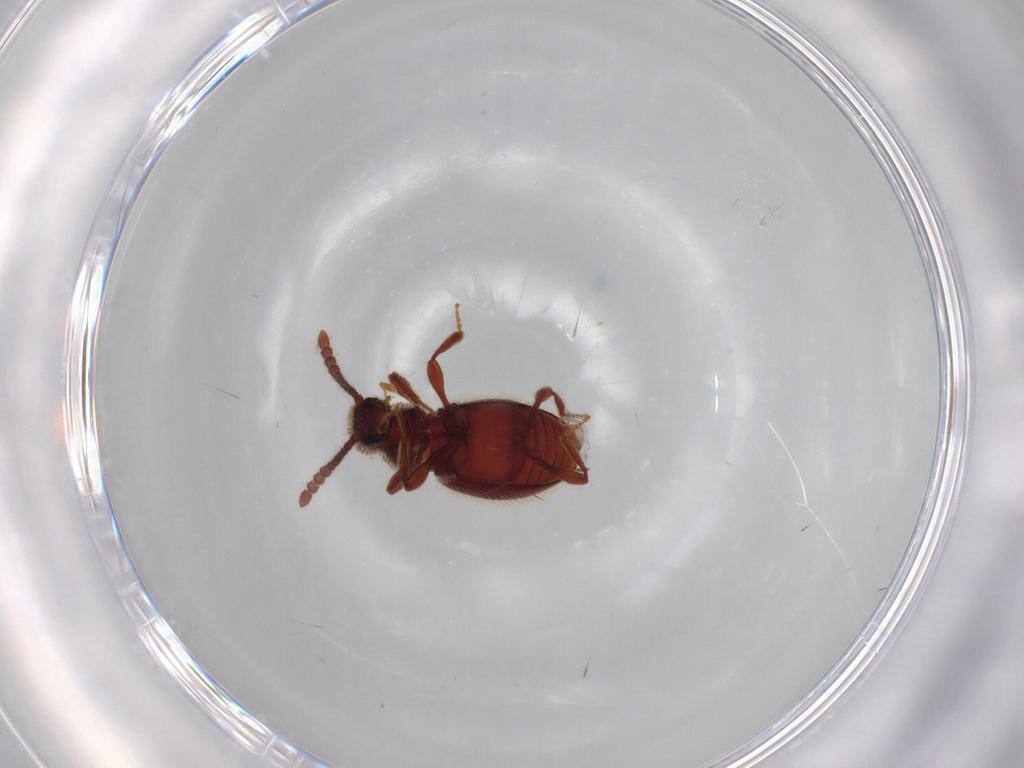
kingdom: Animalia
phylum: Arthropoda
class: Insecta
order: Coleoptera
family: Staphylinidae
